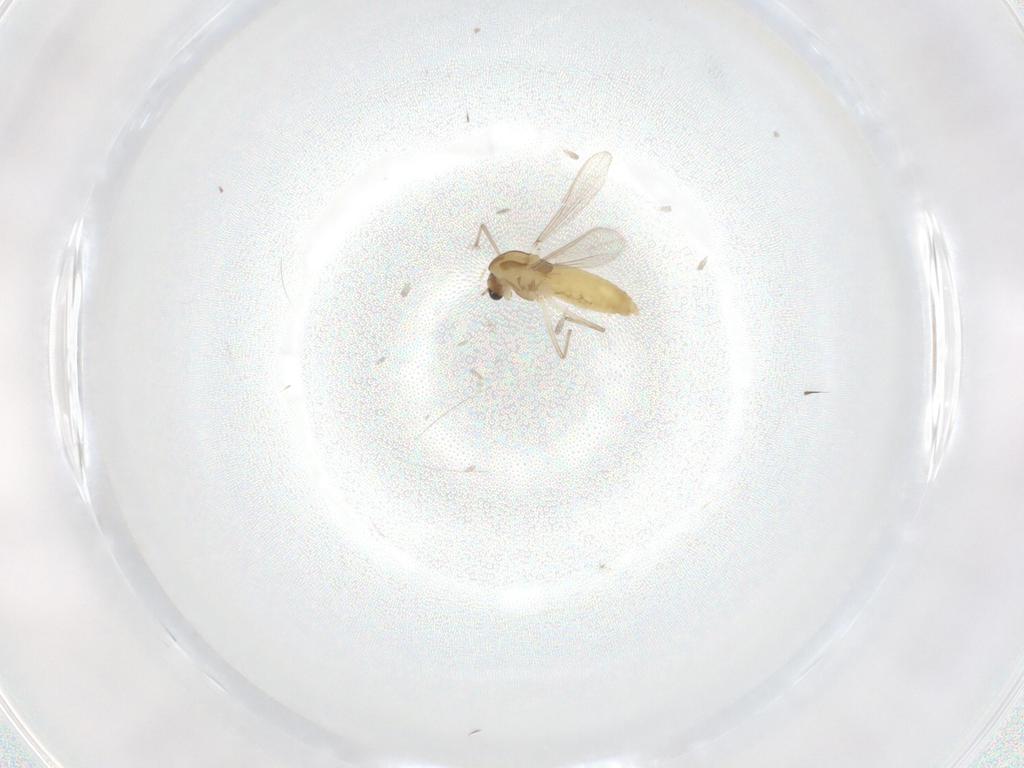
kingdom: Animalia
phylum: Arthropoda
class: Insecta
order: Diptera
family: Chironomidae
